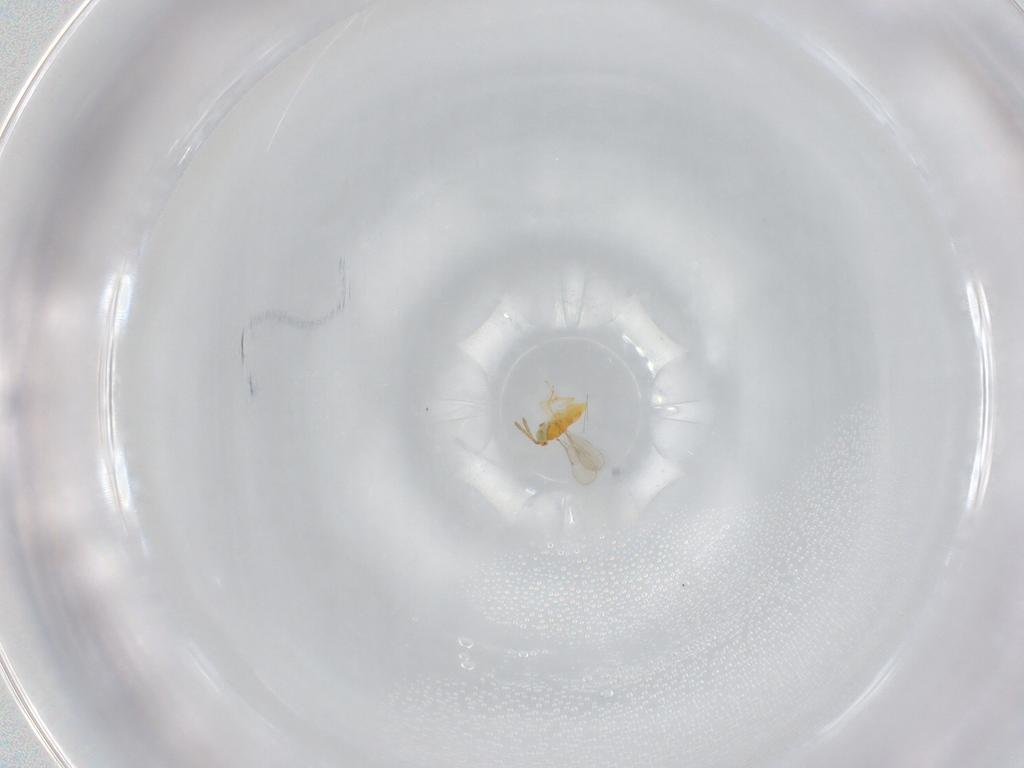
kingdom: Animalia
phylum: Arthropoda
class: Insecta
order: Hymenoptera
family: Aphelinidae
